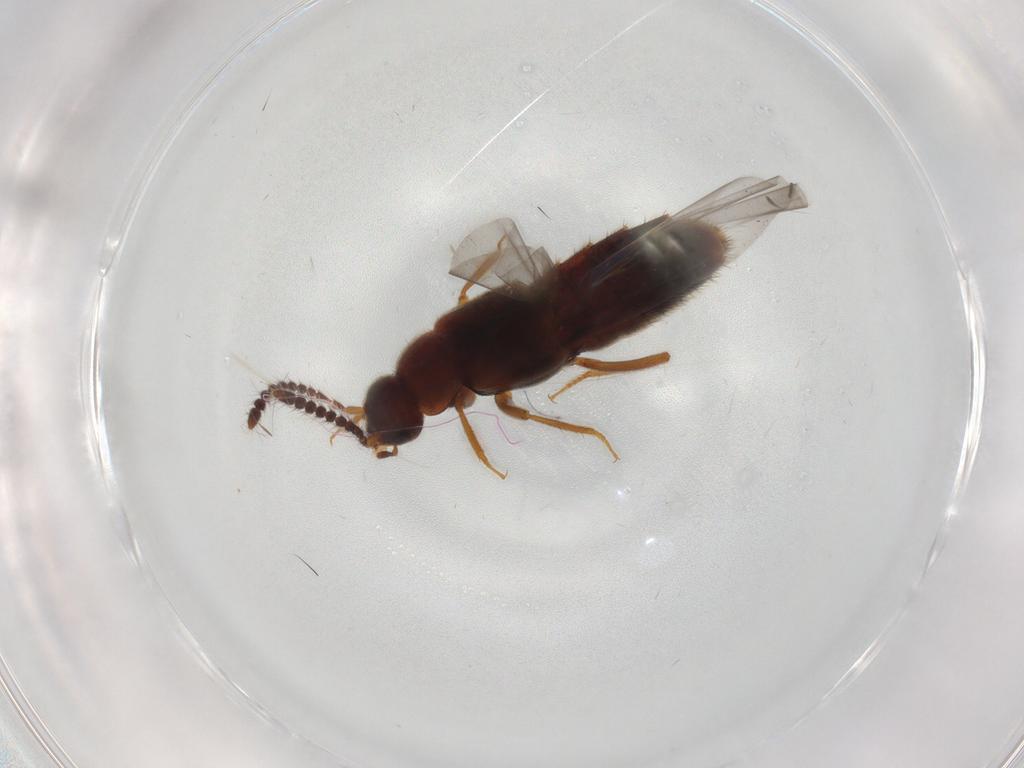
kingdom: Animalia
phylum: Arthropoda
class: Insecta
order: Coleoptera
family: Staphylinidae
